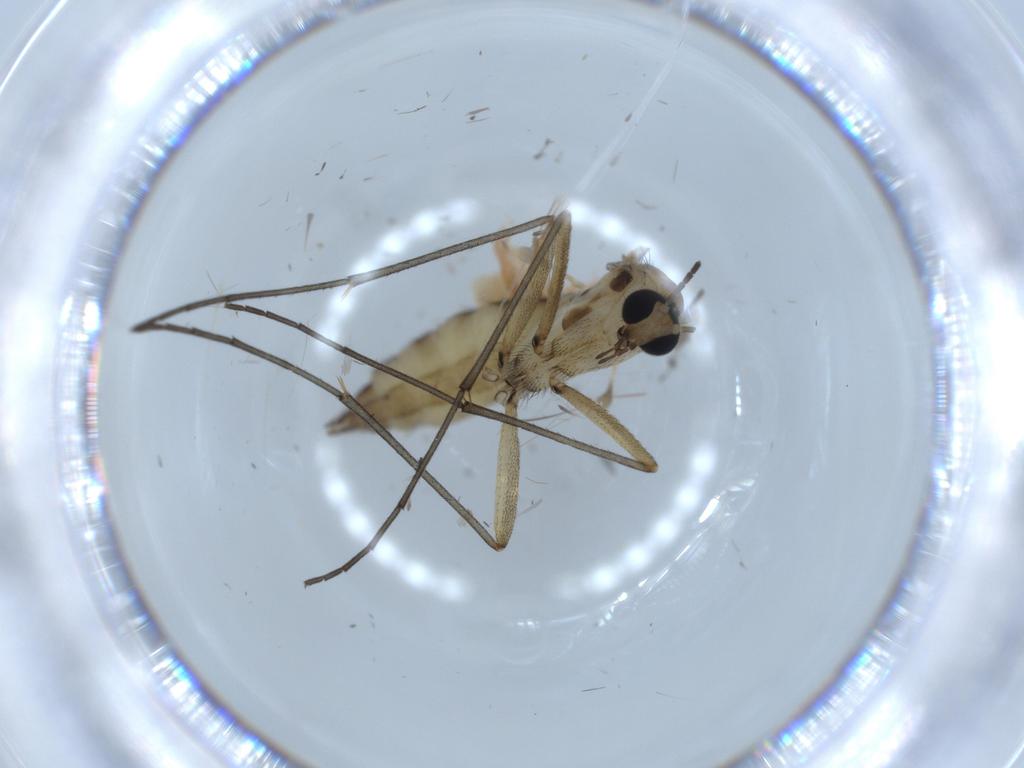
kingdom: Animalia
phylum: Arthropoda
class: Insecta
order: Diptera
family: Sciaridae
